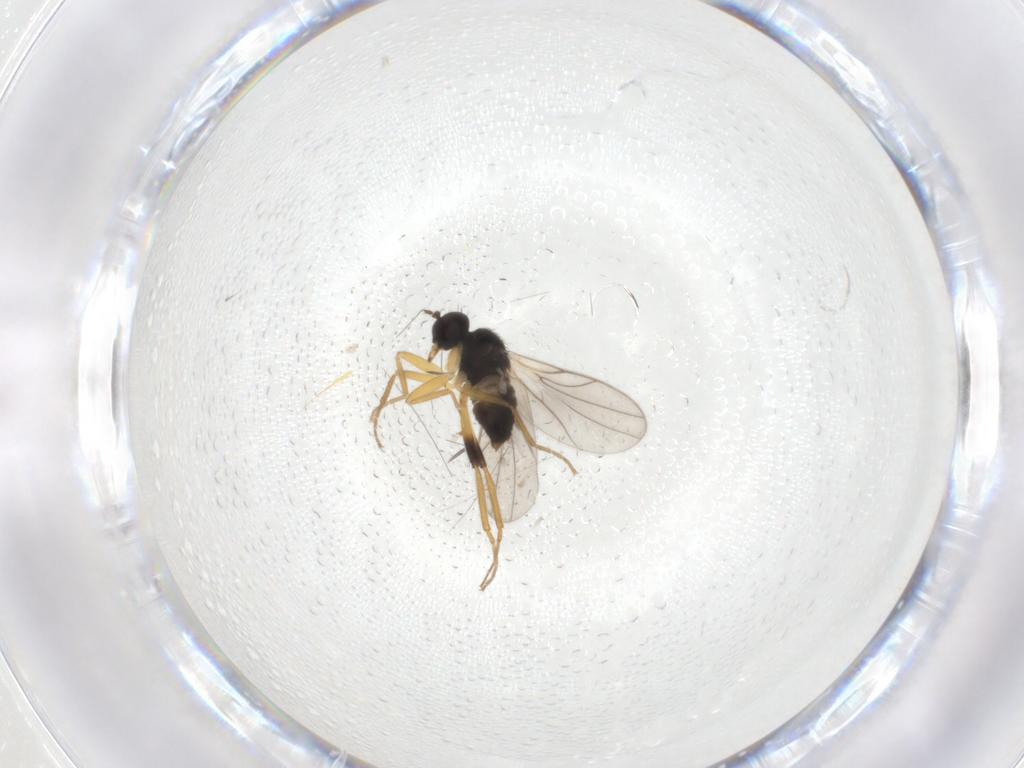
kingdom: Animalia
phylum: Arthropoda
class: Insecta
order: Diptera
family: Hybotidae
